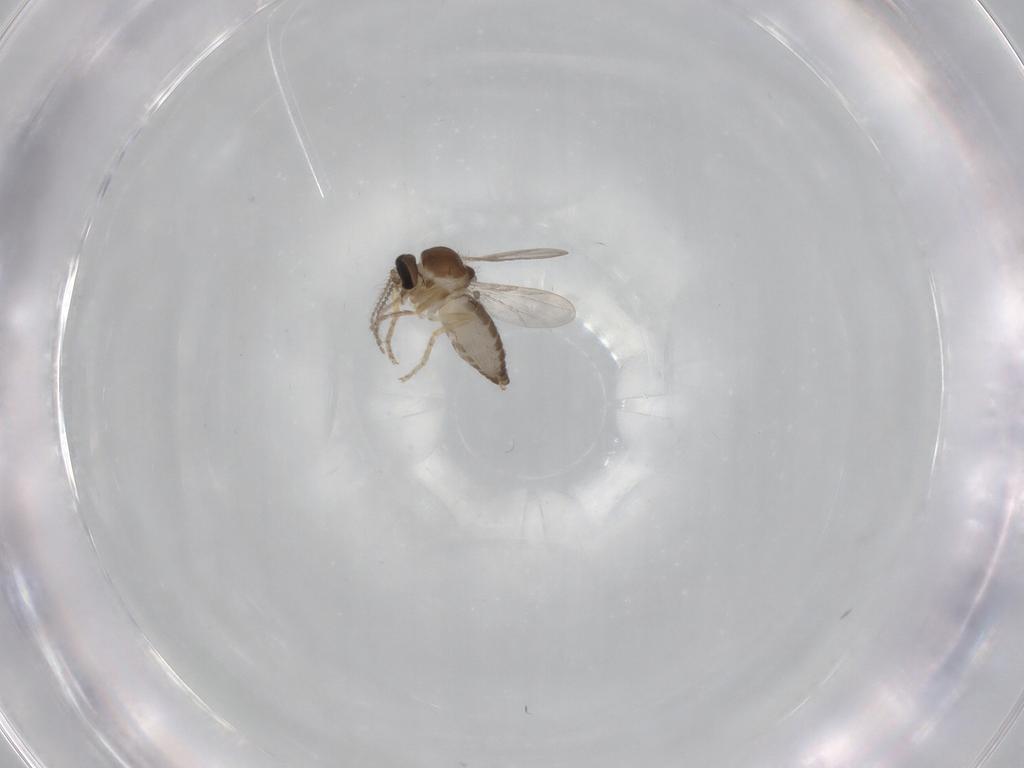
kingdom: Animalia
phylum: Arthropoda
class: Insecta
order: Diptera
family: Ceratopogonidae
